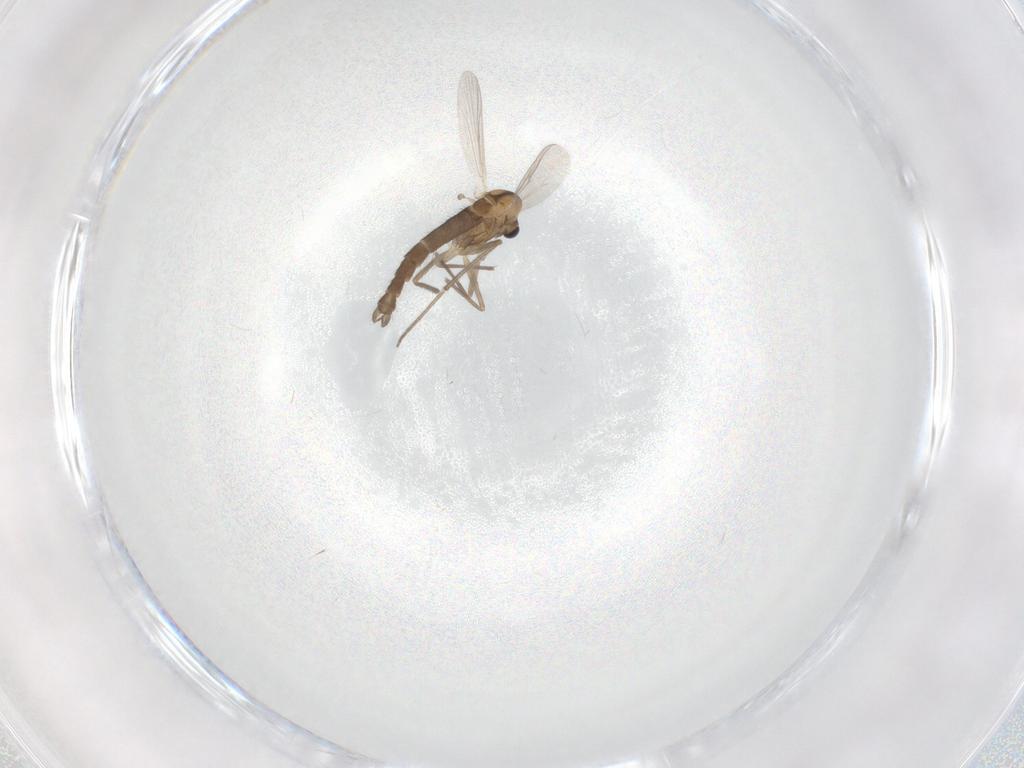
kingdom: Animalia
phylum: Arthropoda
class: Insecta
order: Diptera
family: Chironomidae
